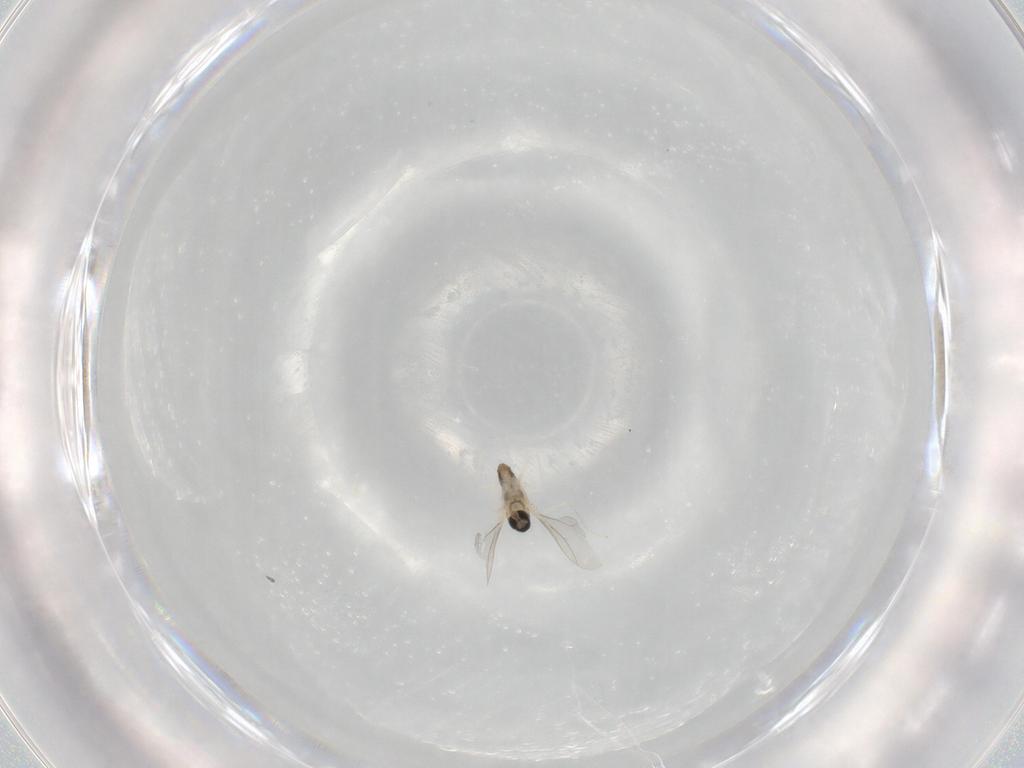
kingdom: Animalia
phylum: Arthropoda
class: Insecta
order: Diptera
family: Cecidomyiidae
